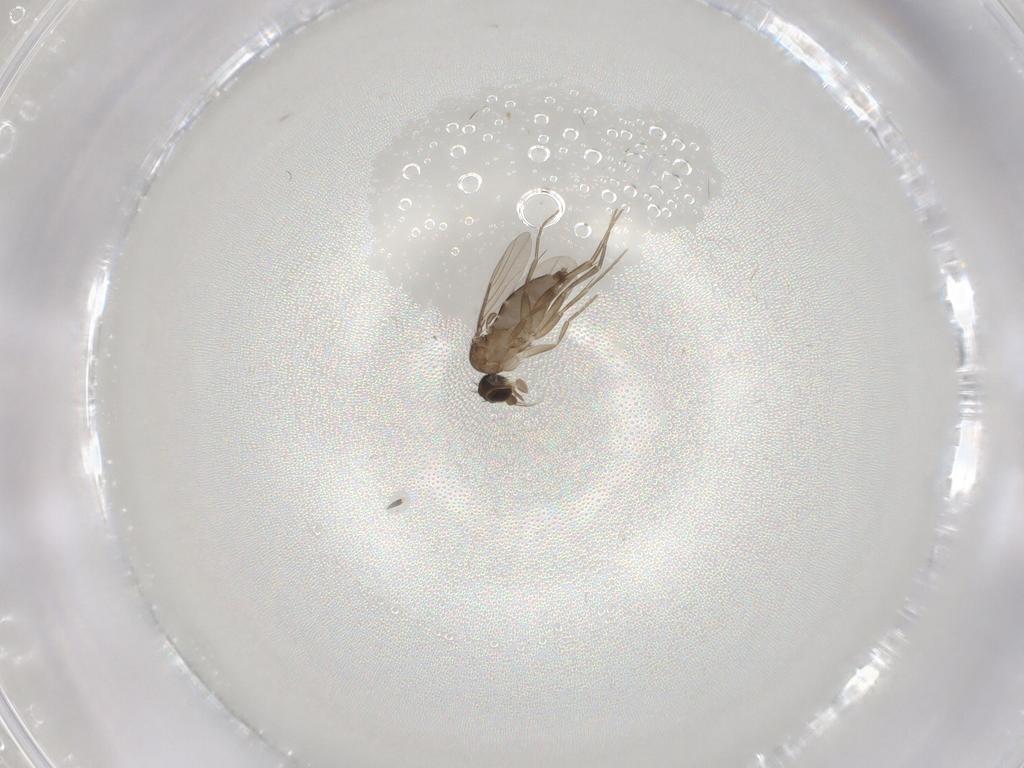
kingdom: Animalia
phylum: Arthropoda
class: Insecta
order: Diptera
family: Phoridae
